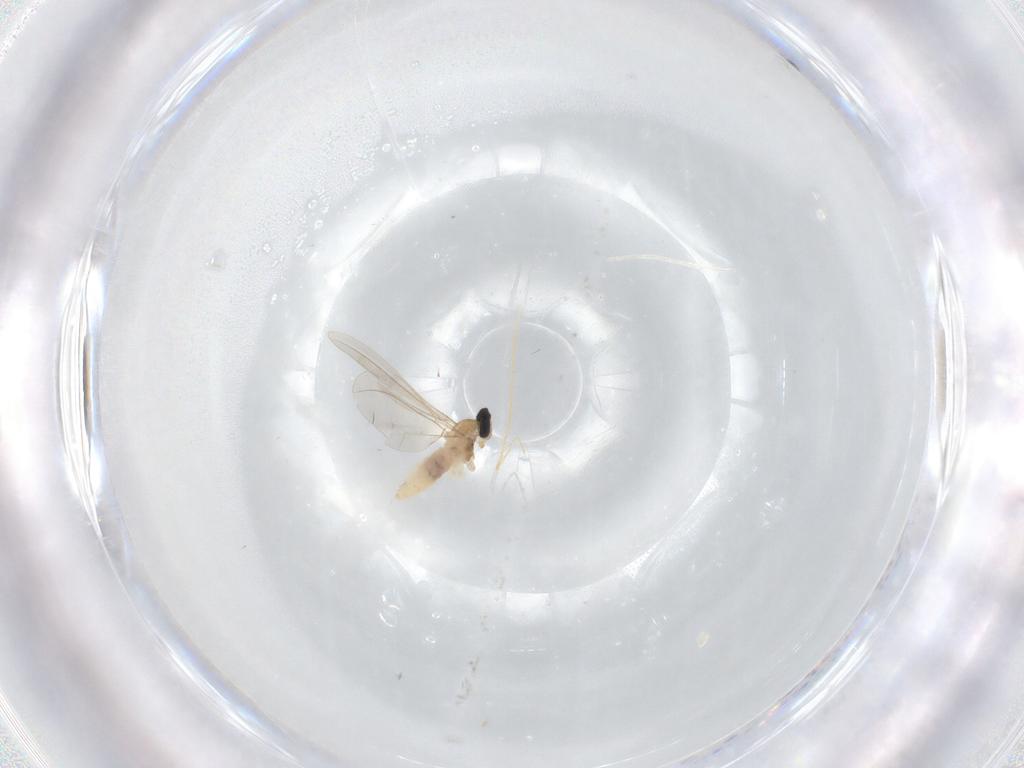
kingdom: Animalia
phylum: Arthropoda
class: Insecta
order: Diptera
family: Cecidomyiidae
